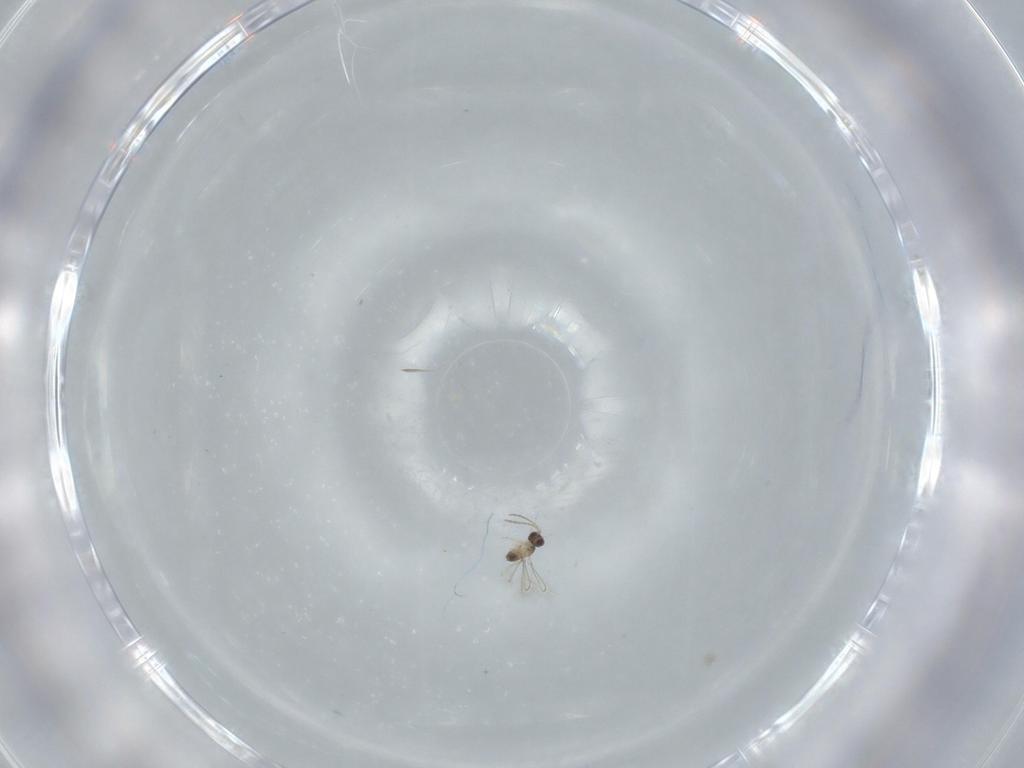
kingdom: Animalia
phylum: Arthropoda
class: Insecta
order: Hymenoptera
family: Mymaridae
